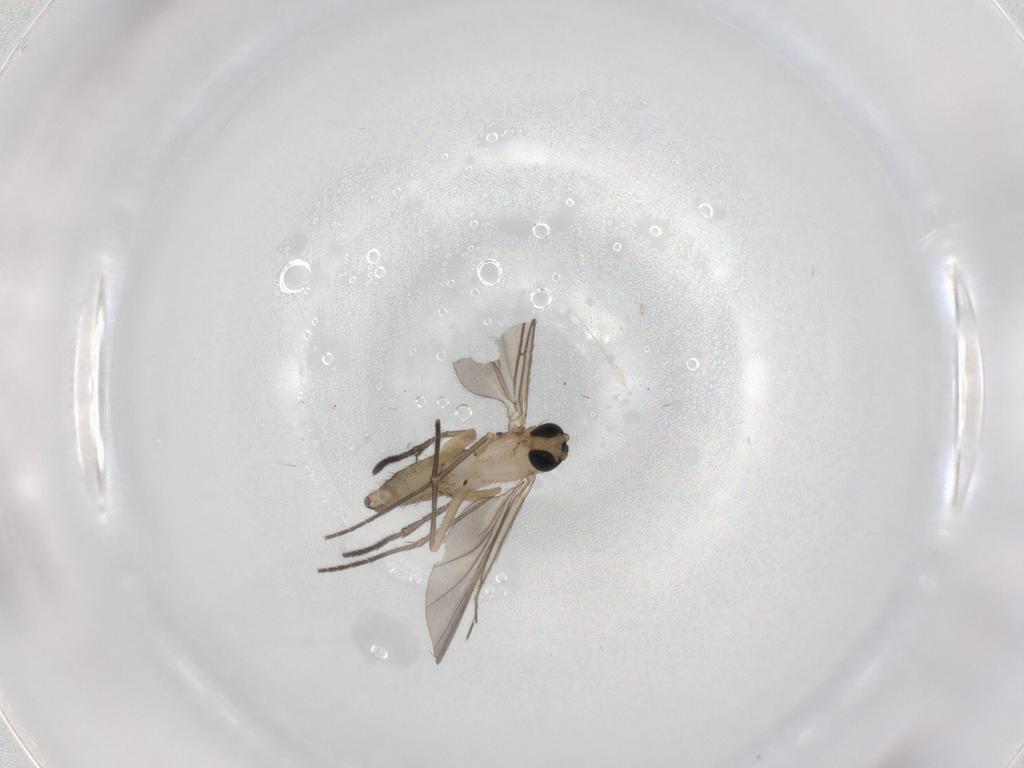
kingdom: Animalia
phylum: Arthropoda
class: Insecta
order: Diptera
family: Sciaridae
